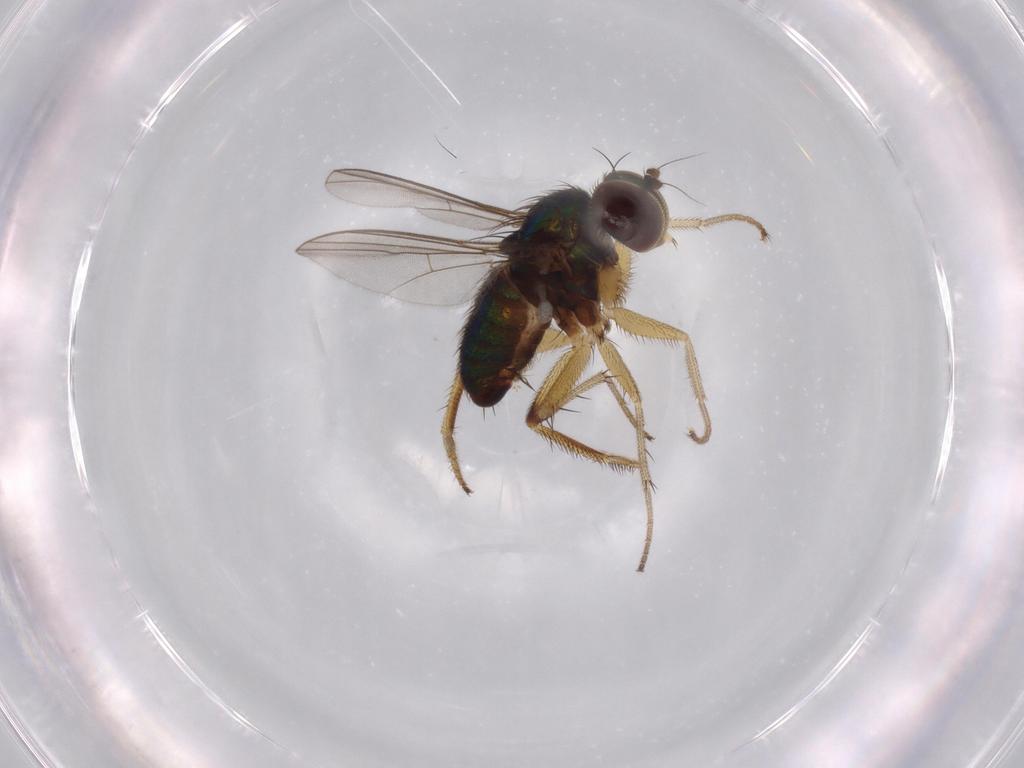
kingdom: Animalia
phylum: Arthropoda
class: Insecta
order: Diptera
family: Dolichopodidae
